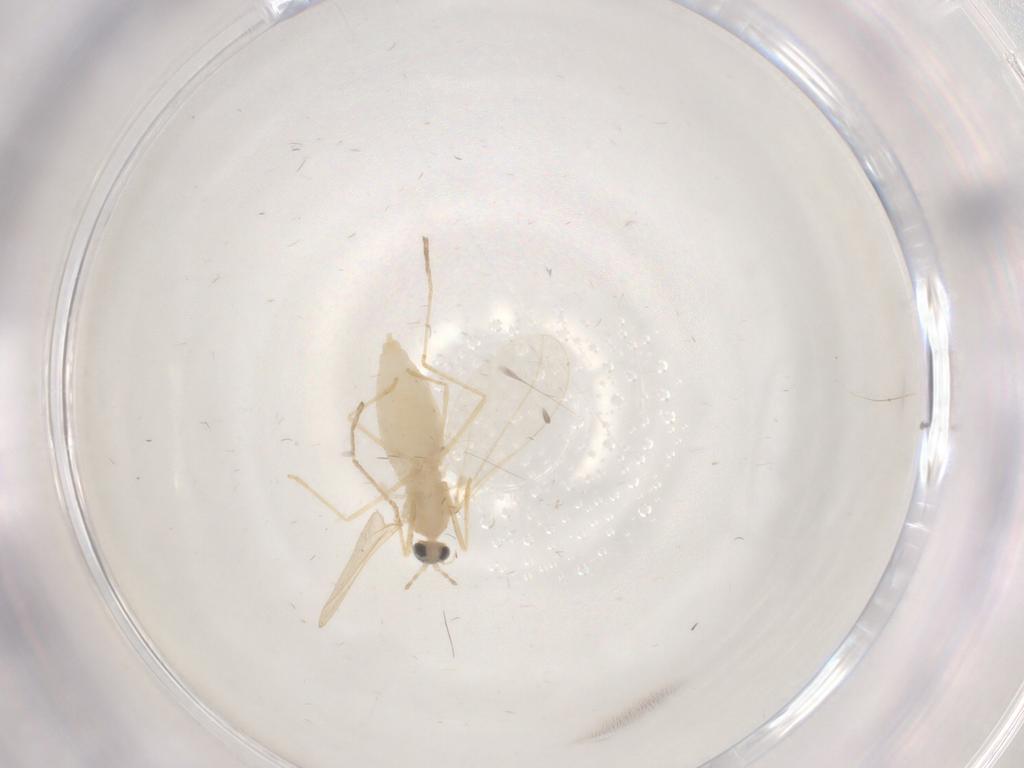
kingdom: Animalia
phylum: Arthropoda
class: Insecta
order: Diptera
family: Cecidomyiidae
